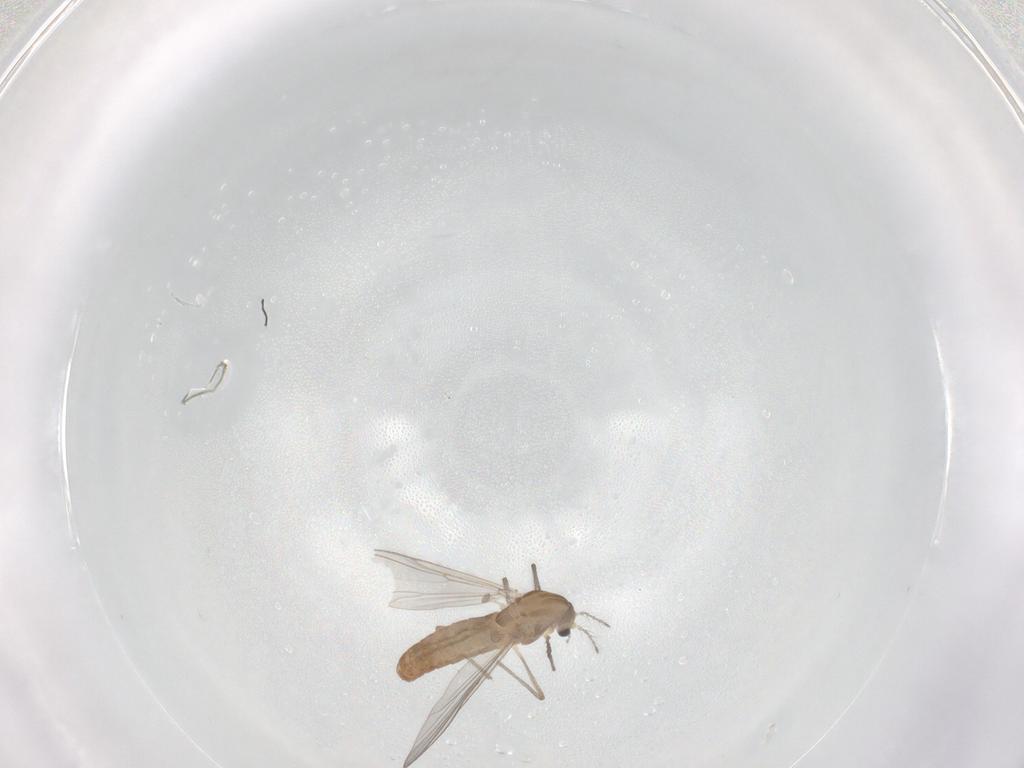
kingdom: Animalia
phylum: Arthropoda
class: Insecta
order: Diptera
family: Chironomidae
